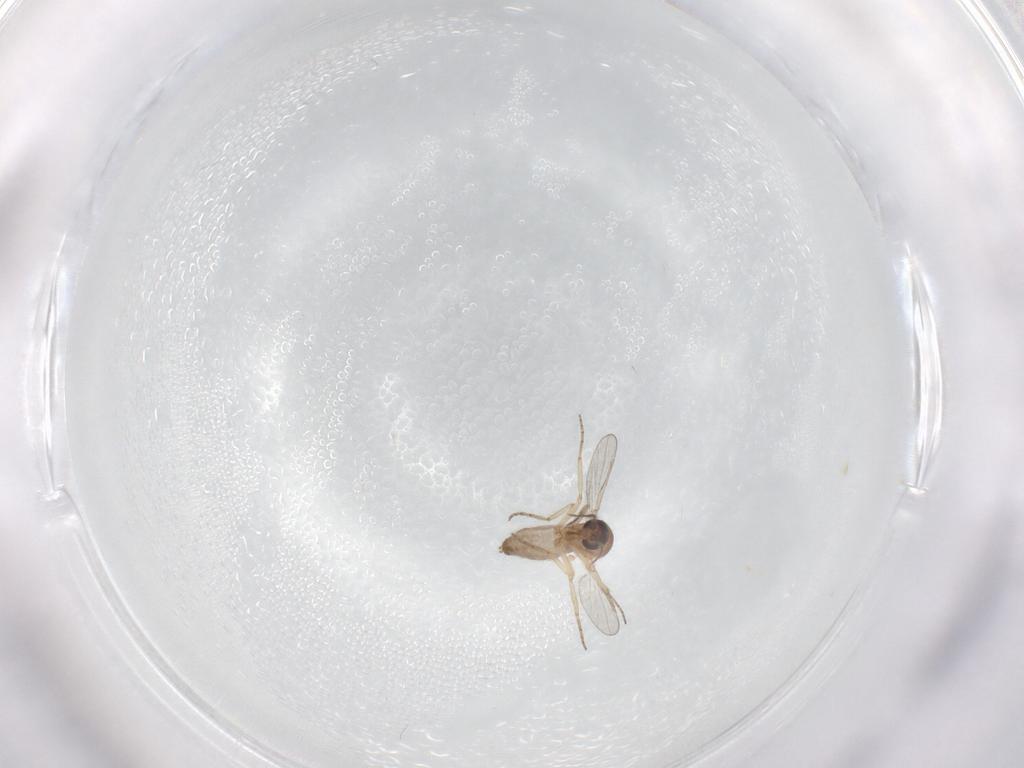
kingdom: Animalia
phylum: Arthropoda
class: Insecta
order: Diptera
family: Ceratopogonidae
